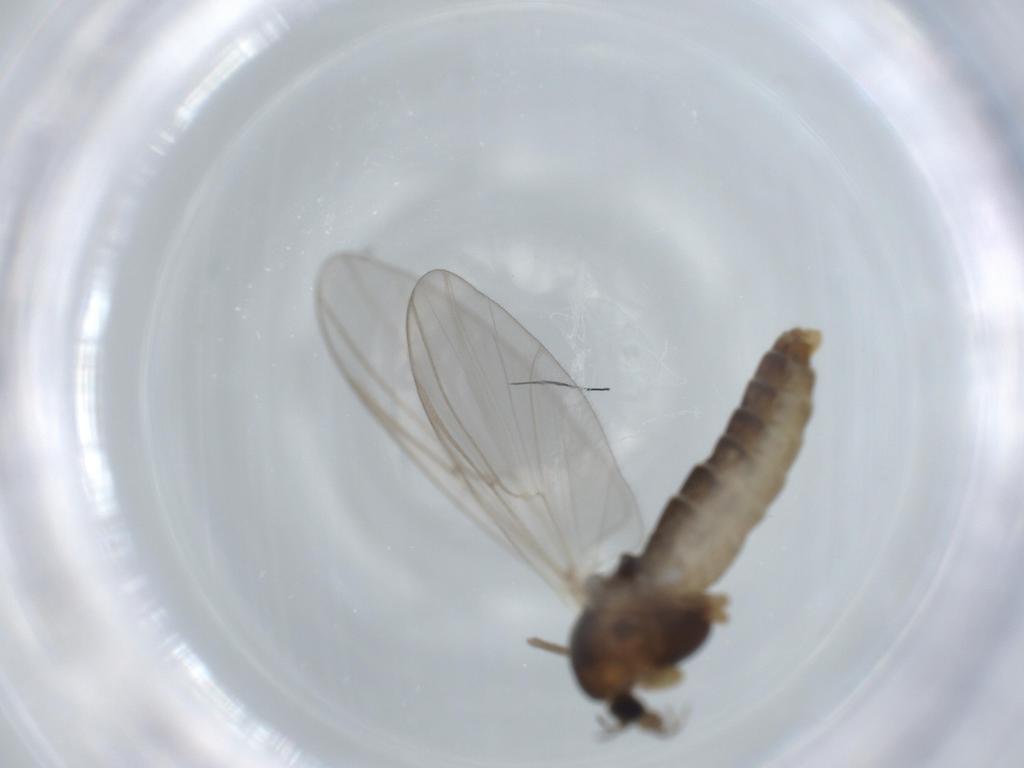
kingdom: Animalia
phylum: Arthropoda
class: Insecta
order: Diptera
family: Chironomidae
